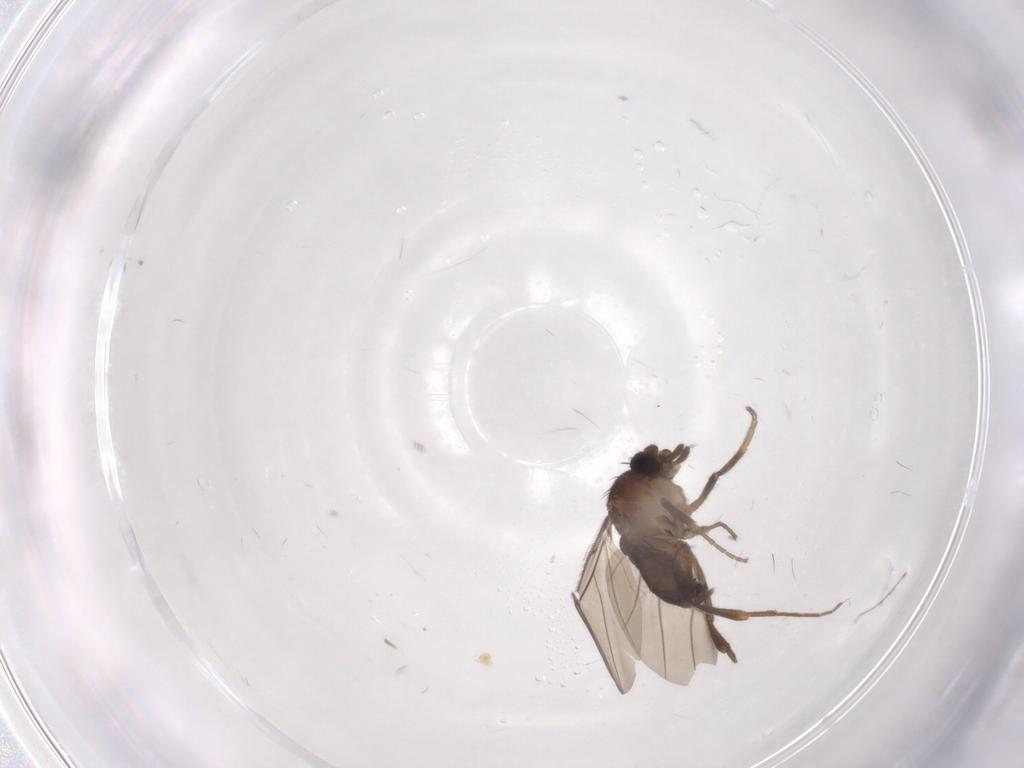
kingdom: Animalia
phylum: Arthropoda
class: Insecta
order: Diptera
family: Phoridae
